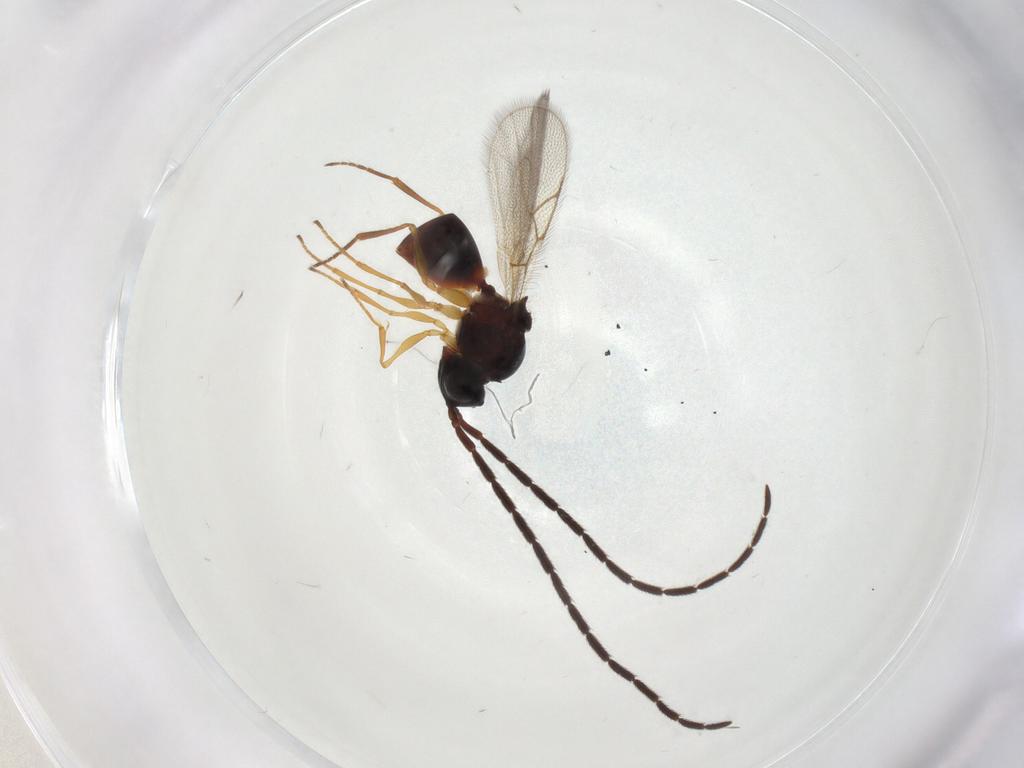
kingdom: Animalia
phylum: Arthropoda
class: Insecta
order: Hymenoptera
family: Figitidae
